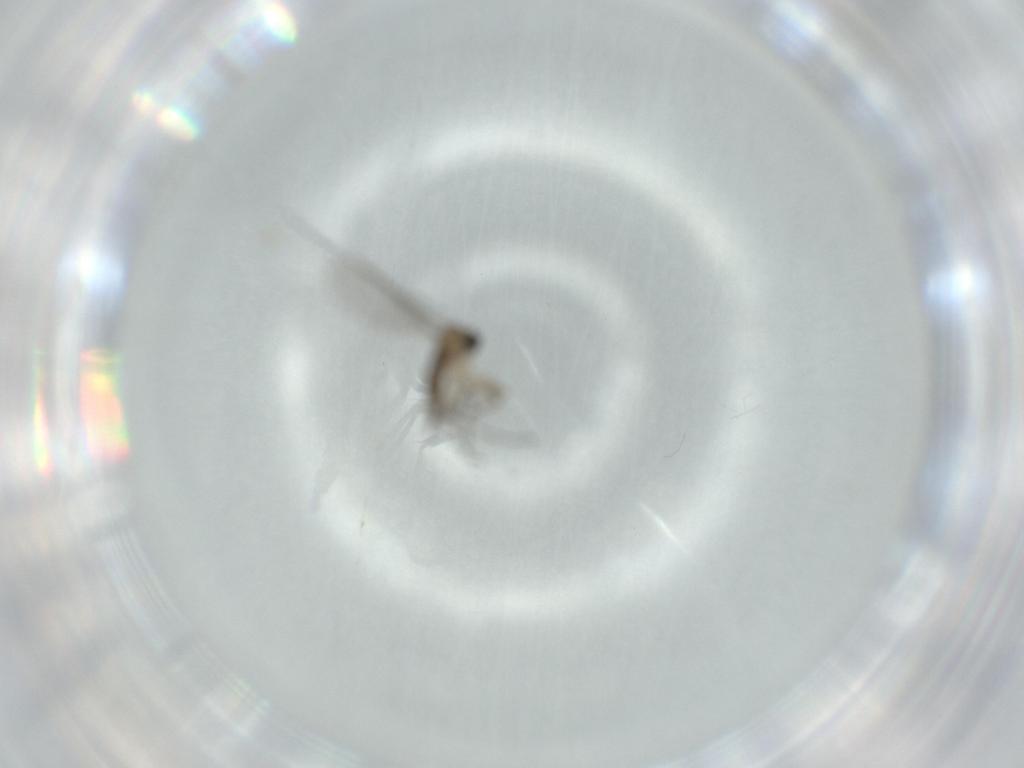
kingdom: Animalia
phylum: Arthropoda
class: Insecta
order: Diptera
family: Sciaridae
